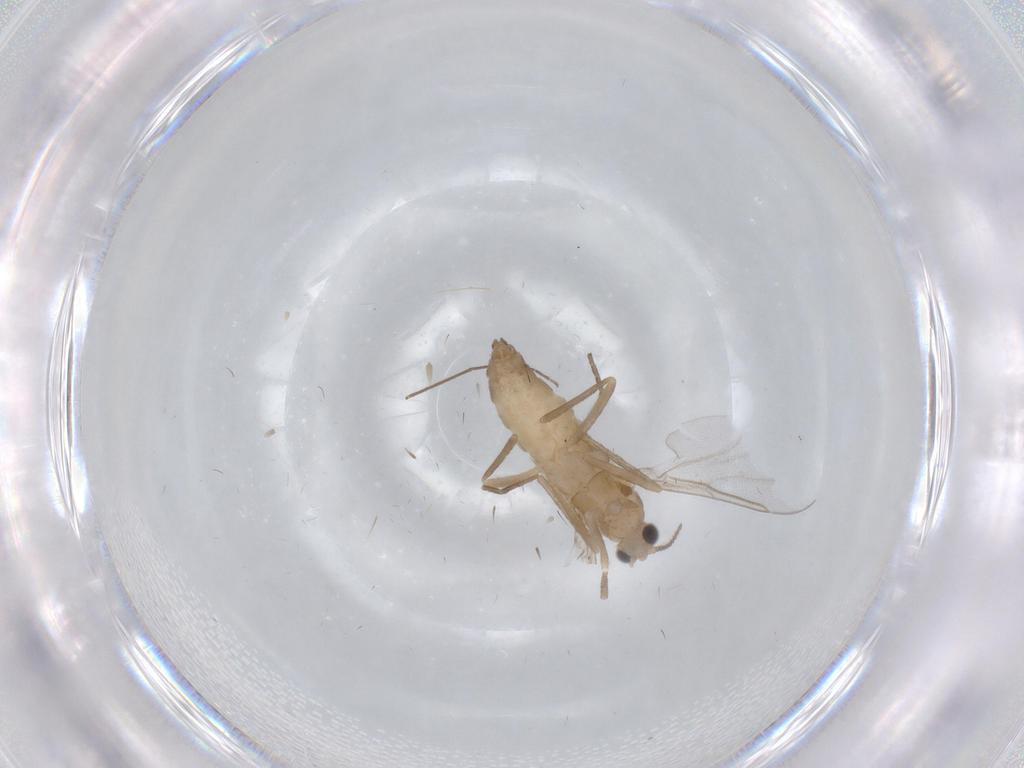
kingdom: Animalia
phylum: Arthropoda
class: Insecta
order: Diptera
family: Cecidomyiidae
